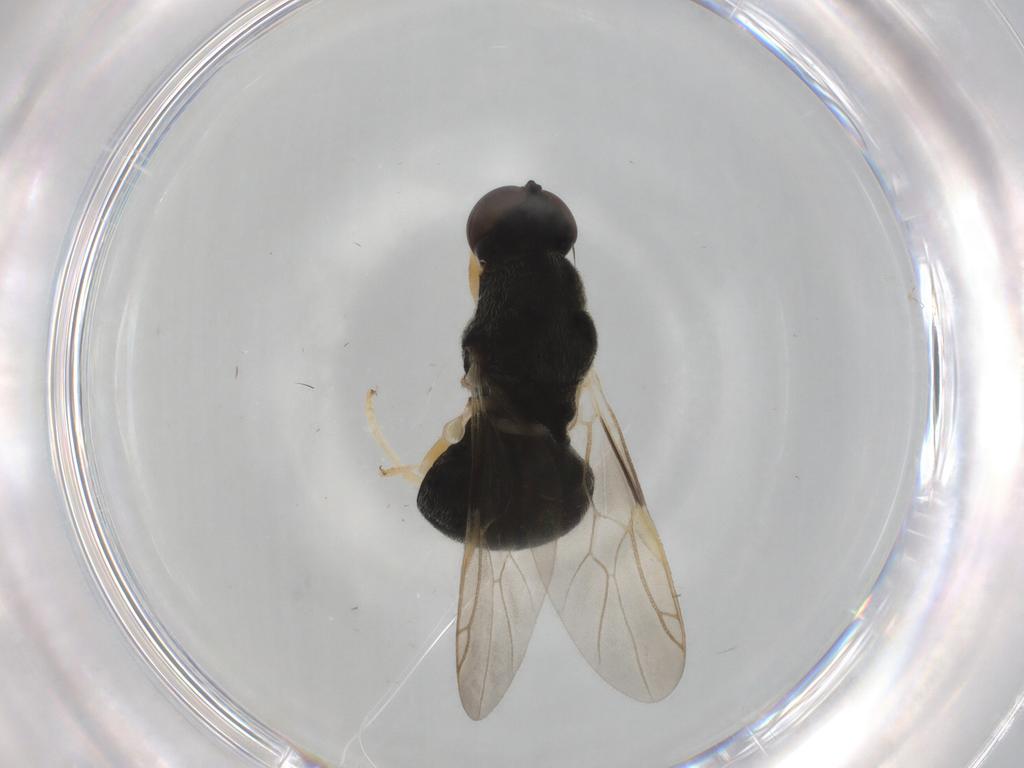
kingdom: Animalia
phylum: Arthropoda
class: Insecta
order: Diptera
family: Stratiomyidae
